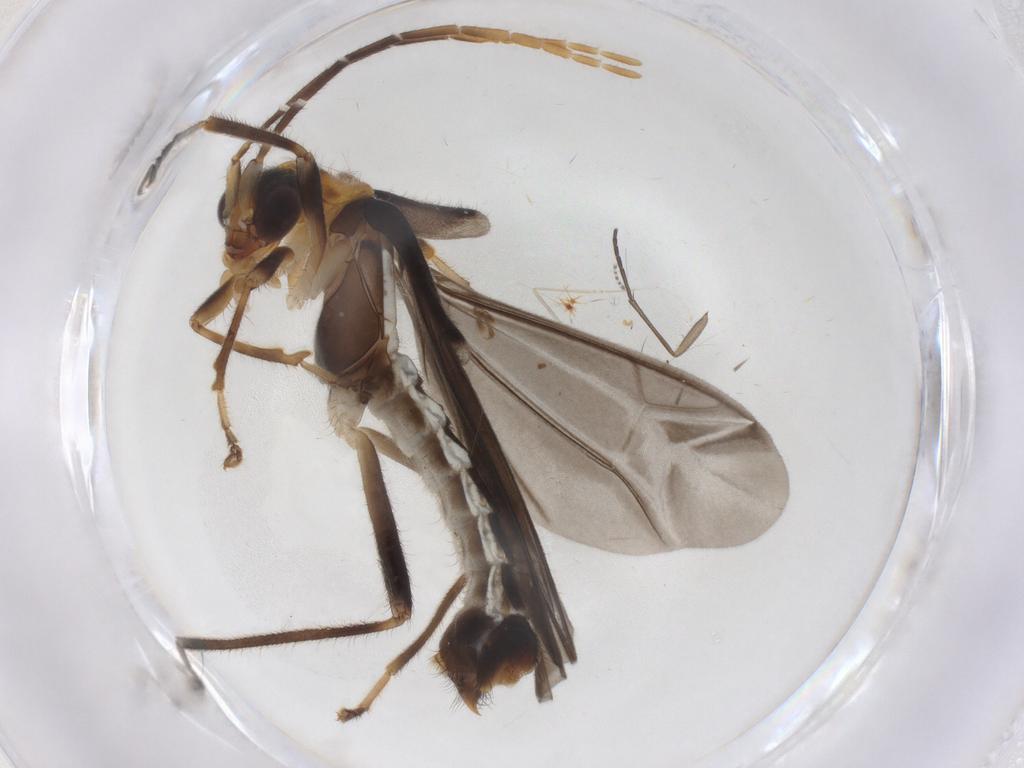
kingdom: Animalia
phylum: Arthropoda
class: Insecta
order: Coleoptera
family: Cantharidae
